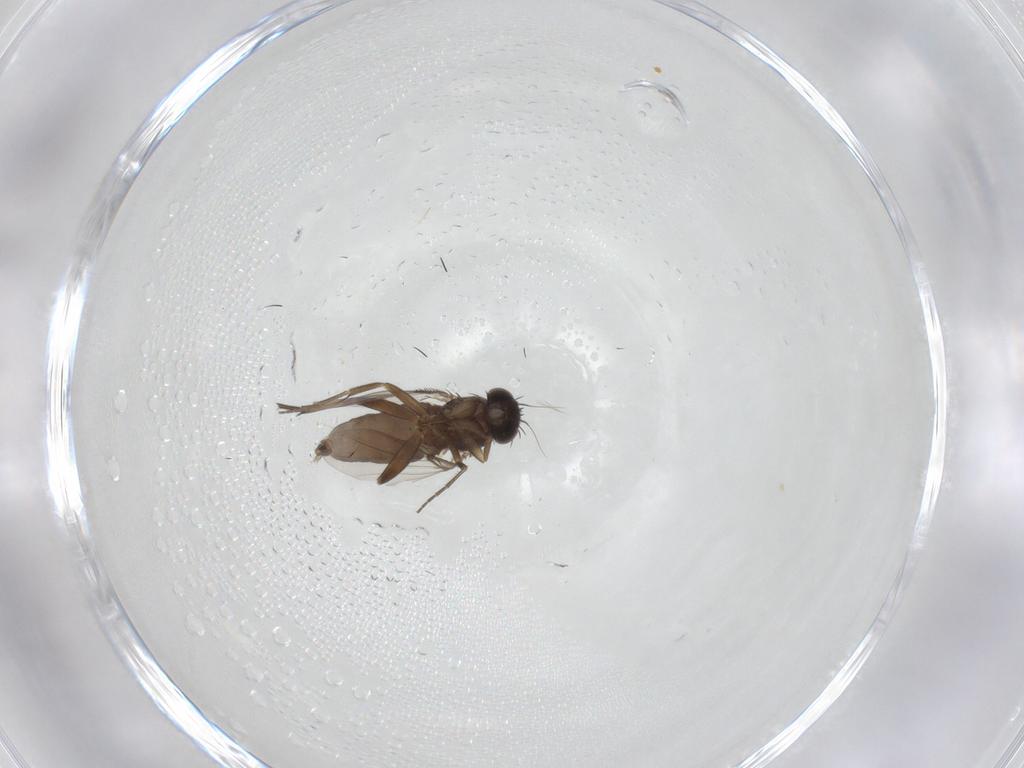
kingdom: Animalia
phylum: Arthropoda
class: Insecta
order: Diptera
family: Phoridae
